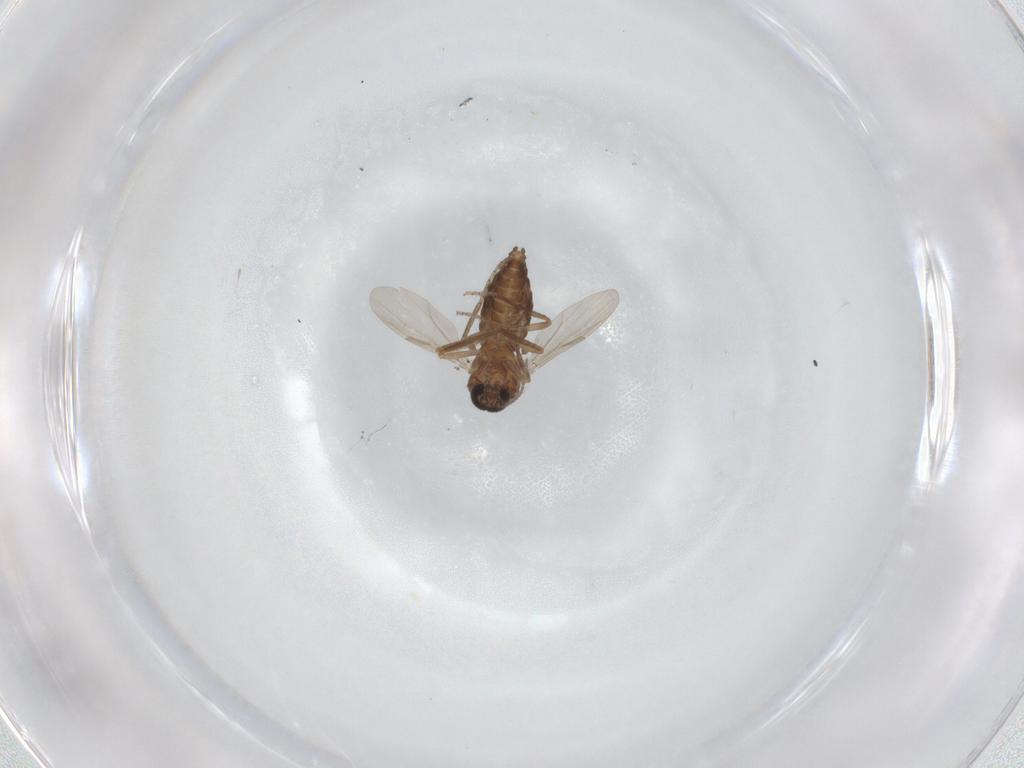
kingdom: Animalia
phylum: Arthropoda
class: Insecta
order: Diptera
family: Ceratopogonidae
